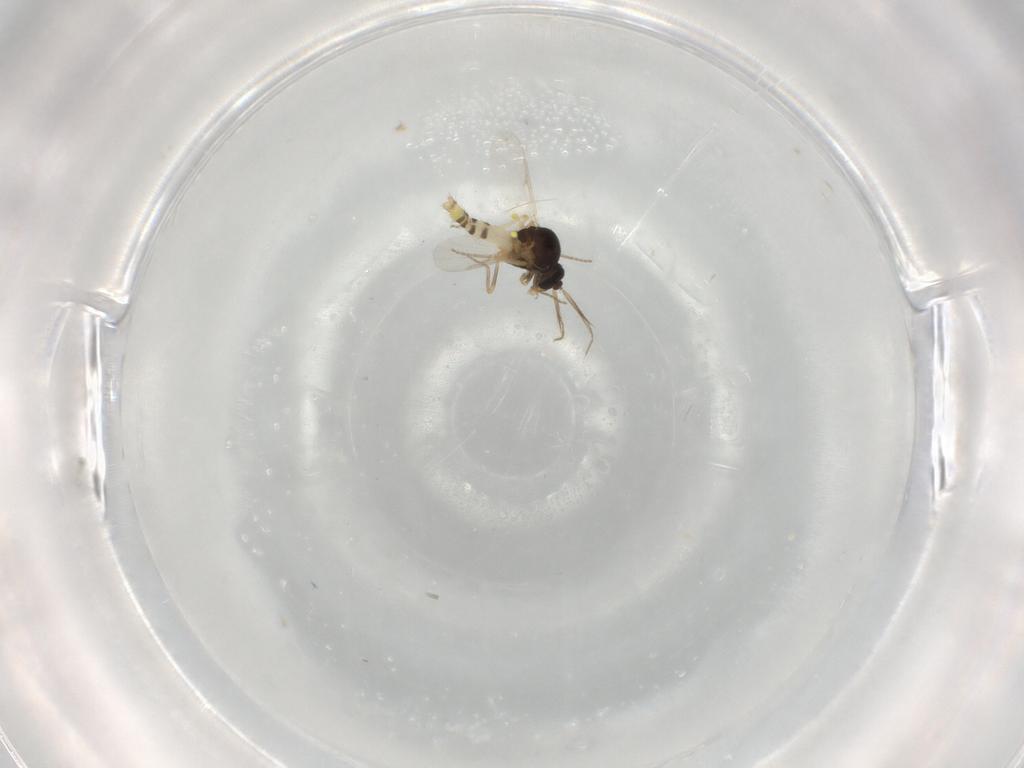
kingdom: Animalia
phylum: Arthropoda
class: Insecta
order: Diptera
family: Ceratopogonidae
